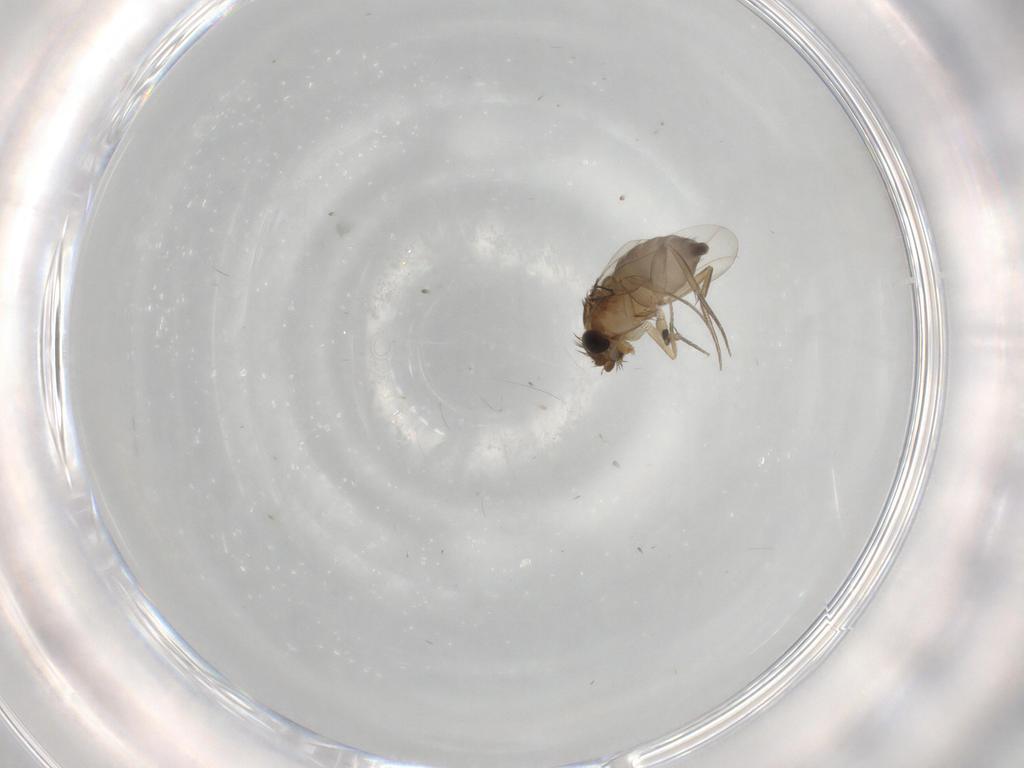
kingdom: Animalia
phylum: Arthropoda
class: Insecta
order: Diptera
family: Phoridae
